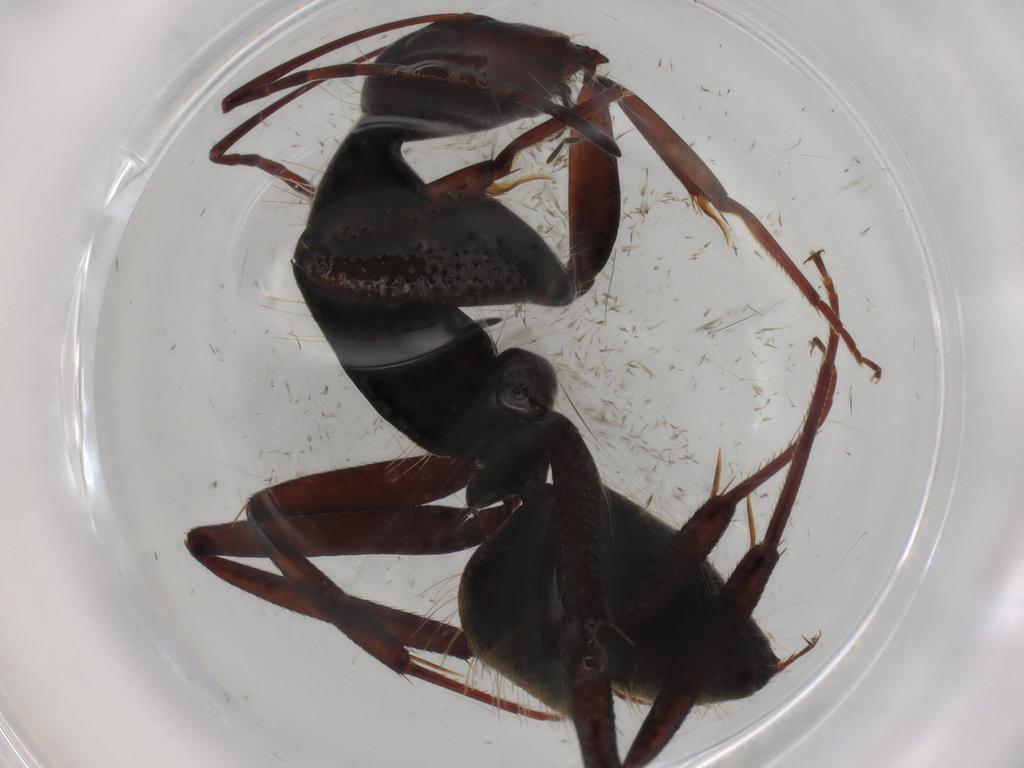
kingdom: Animalia
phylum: Arthropoda
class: Insecta
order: Hymenoptera
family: Formicidae
